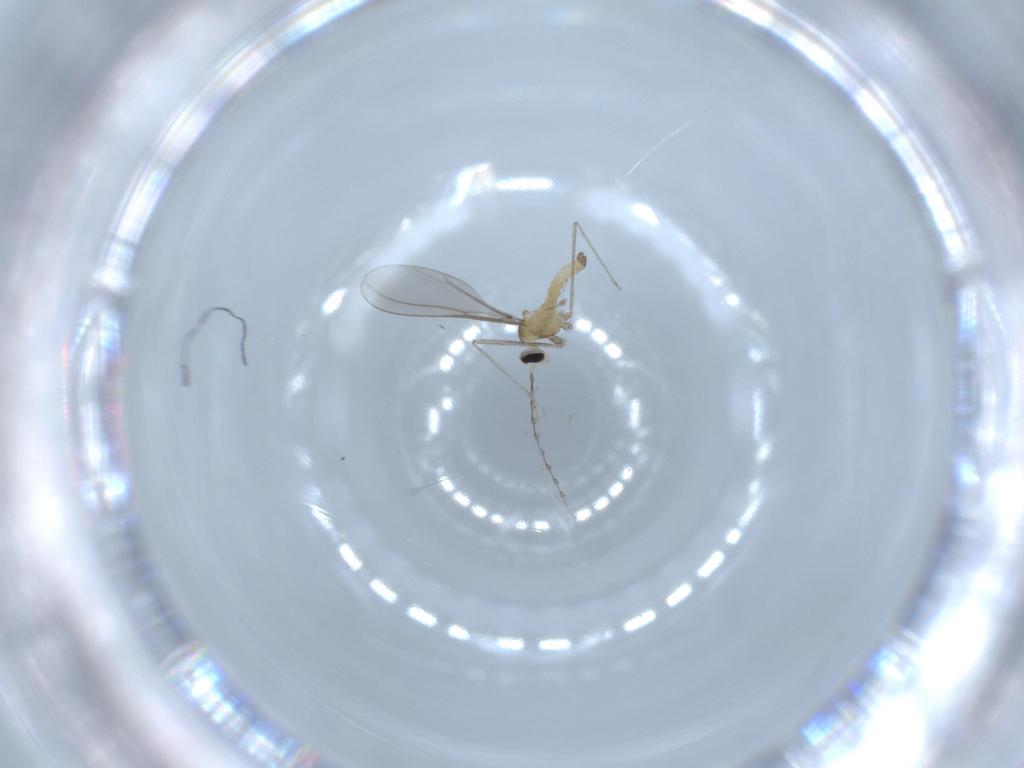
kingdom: Animalia
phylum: Arthropoda
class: Insecta
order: Diptera
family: Cecidomyiidae
